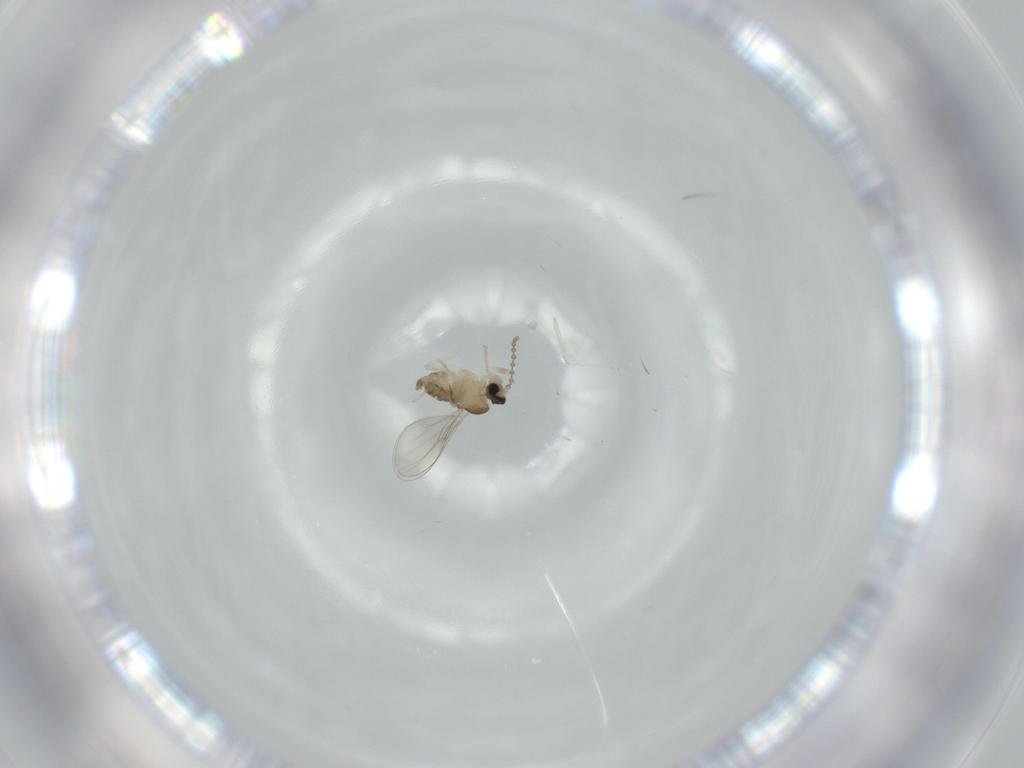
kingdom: Animalia
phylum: Arthropoda
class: Insecta
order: Diptera
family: Cecidomyiidae
